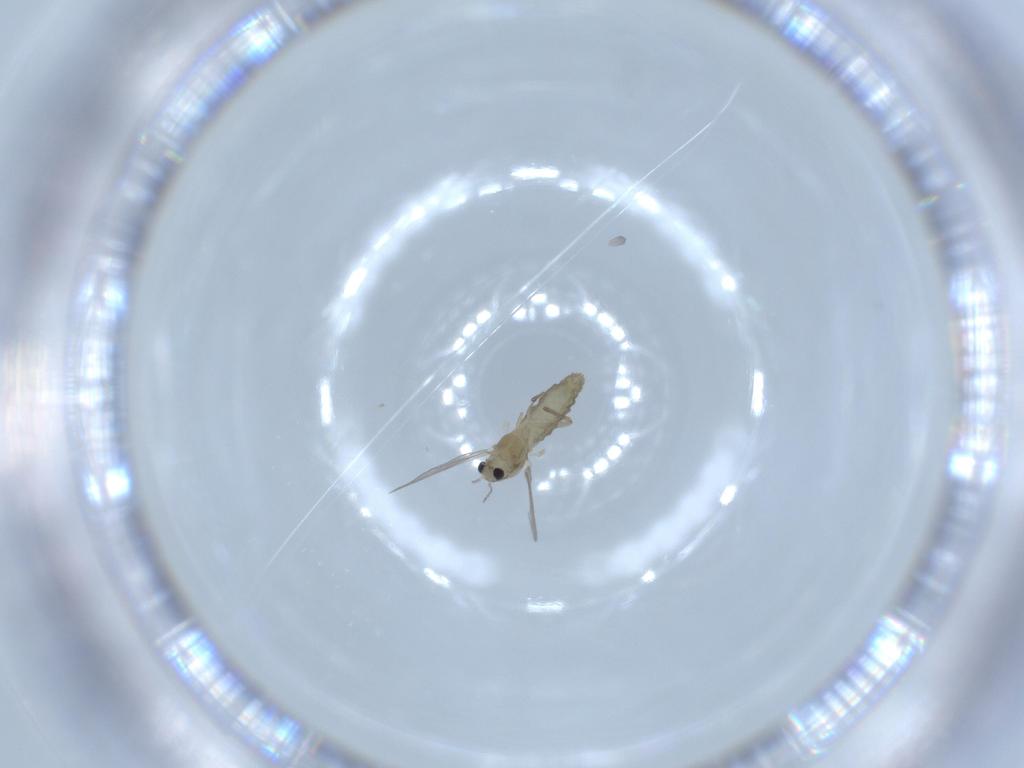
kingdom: Animalia
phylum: Arthropoda
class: Insecta
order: Diptera
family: Chironomidae
